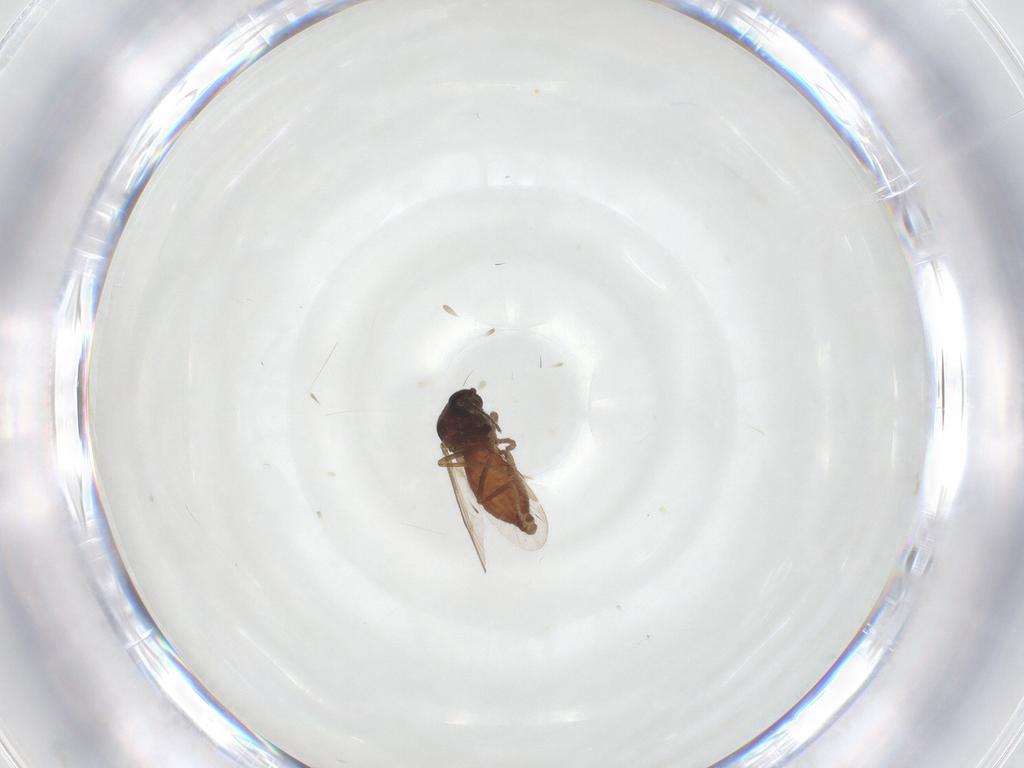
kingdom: Animalia
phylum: Arthropoda
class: Insecta
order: Diptera
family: Ceratopogonidae
